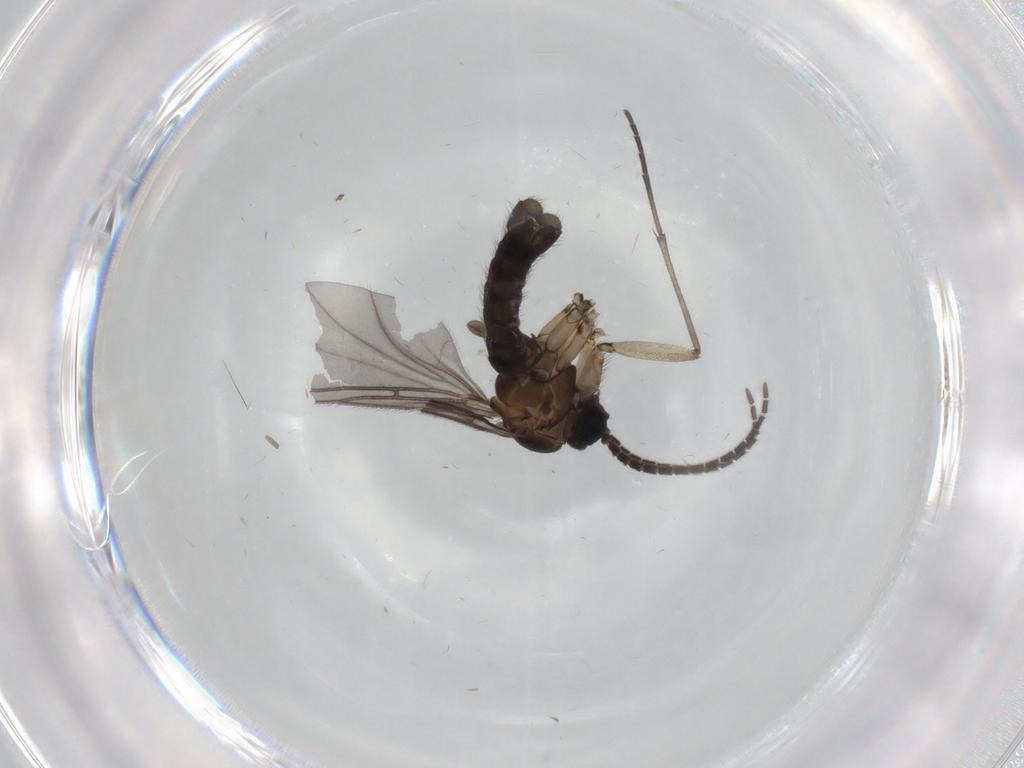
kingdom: Animalia
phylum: Arthropoda
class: Insecta
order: Diptera
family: Sciaridae
